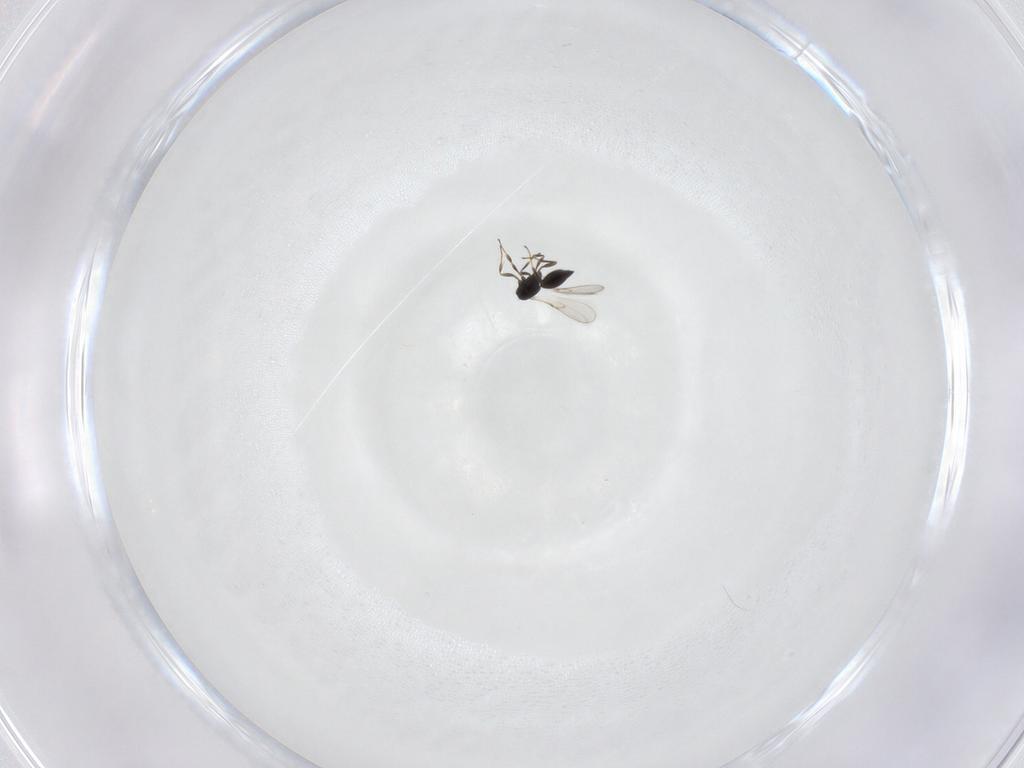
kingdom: Animalia
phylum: Arthropoda
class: Insecta
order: Hymenoptera
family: Scelionidae
